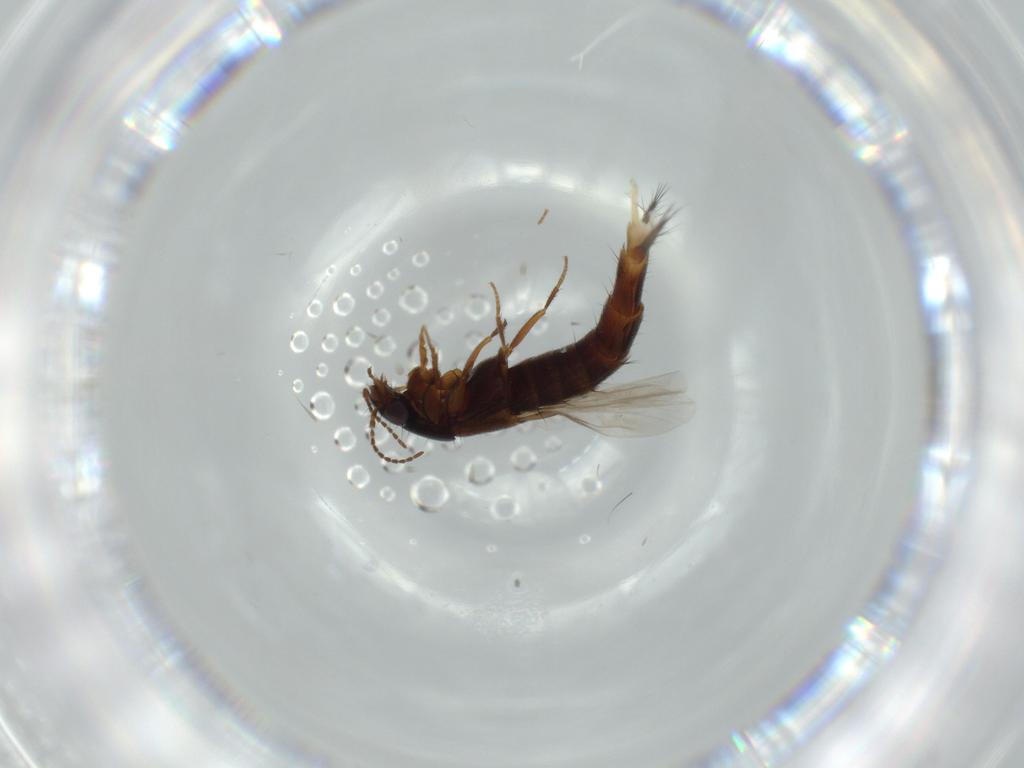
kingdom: Animalia
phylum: Arthropoda
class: Insecta
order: Coleoptera
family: Coccinellidae
